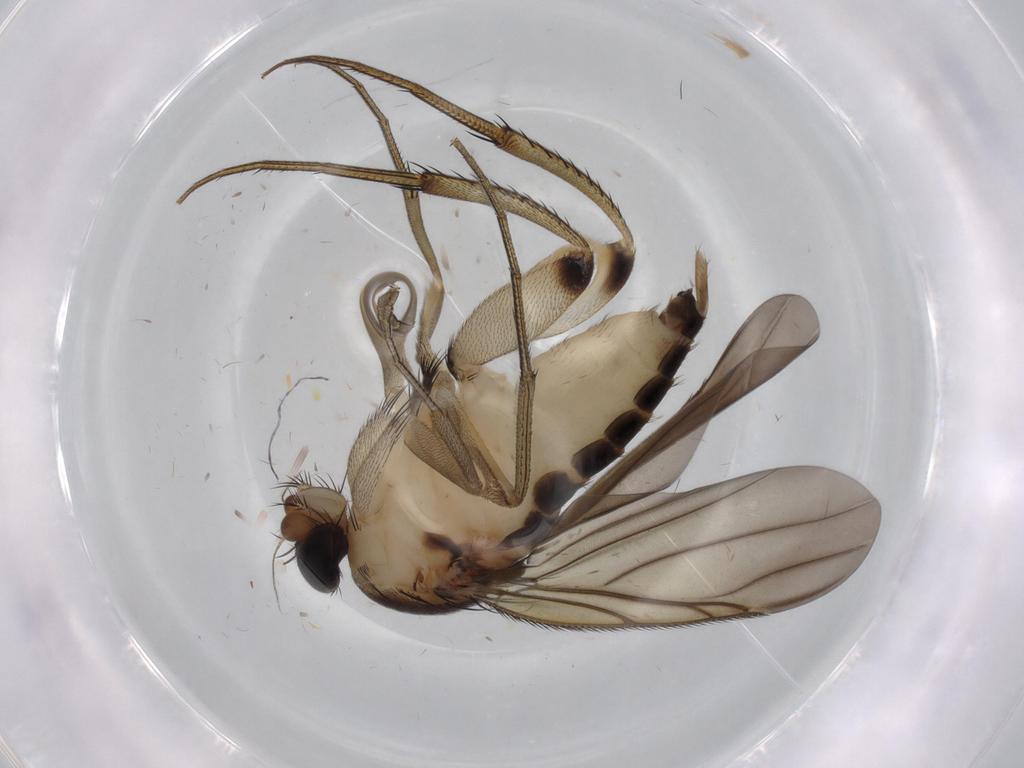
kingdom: Animalia
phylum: Arthropoda
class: Insecta
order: Diptera
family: Phoridae
